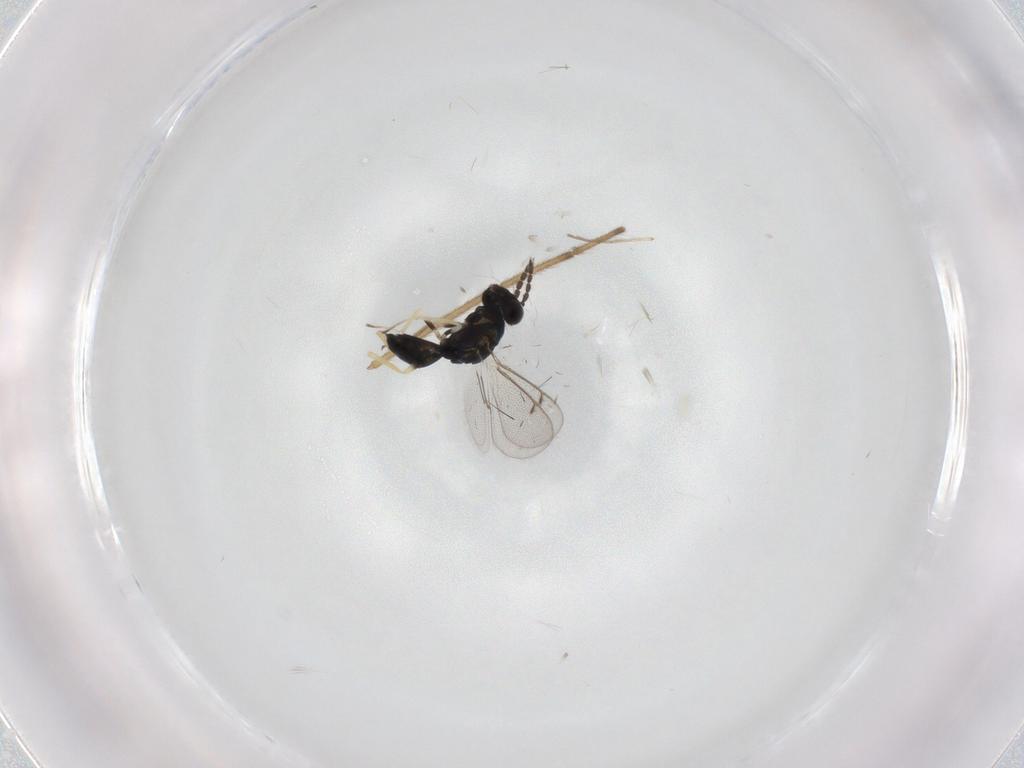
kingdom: Animalia
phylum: Arthropoda
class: Insecta
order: Hymenoptera
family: Eulophidae
